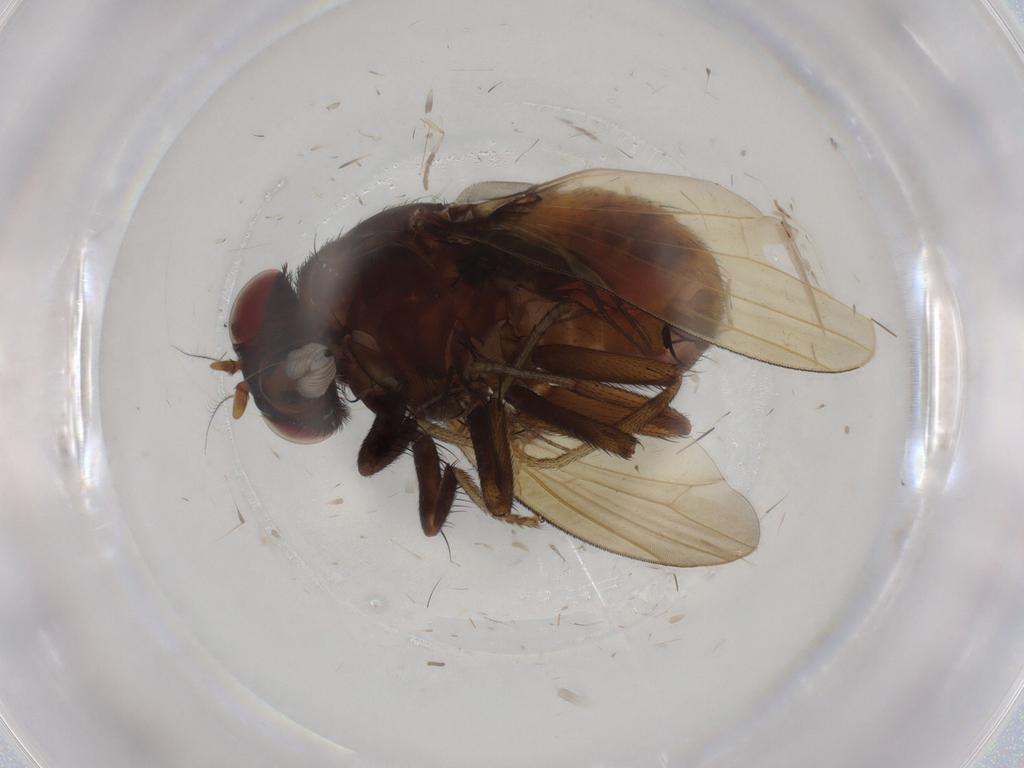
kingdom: Animalia
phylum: Arthropoda
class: Insecta
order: Diptera
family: Phoridae
